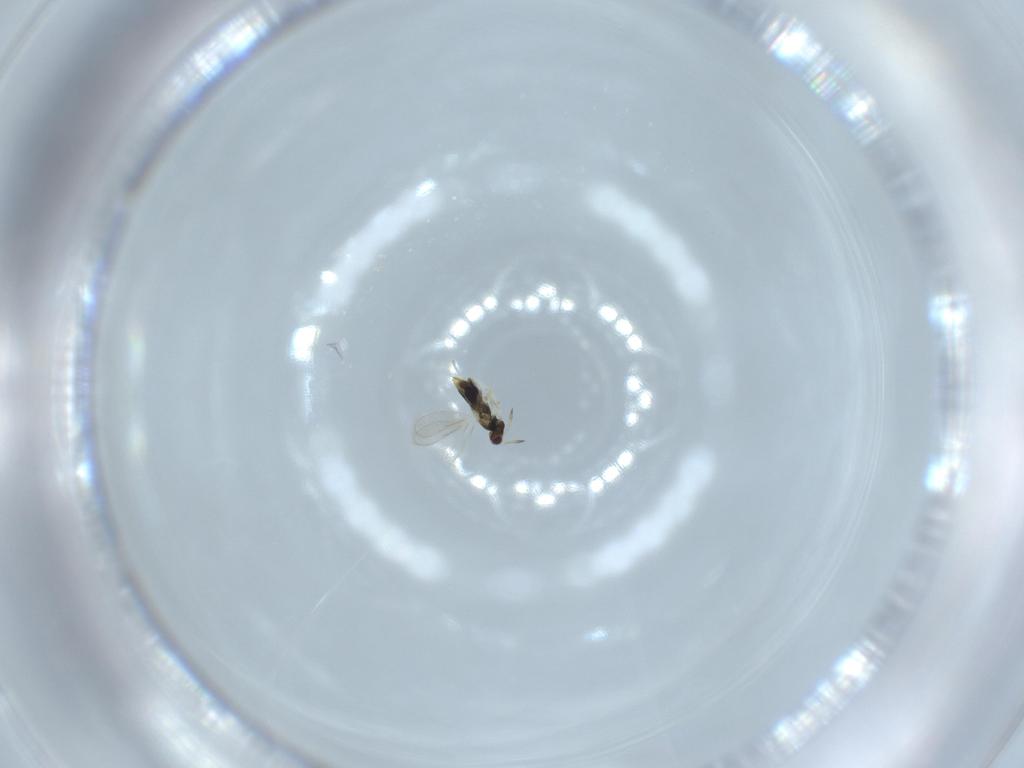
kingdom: Animalia
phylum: Arthropoda
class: Insecta
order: Hymenoptera
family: Aphelinidae
